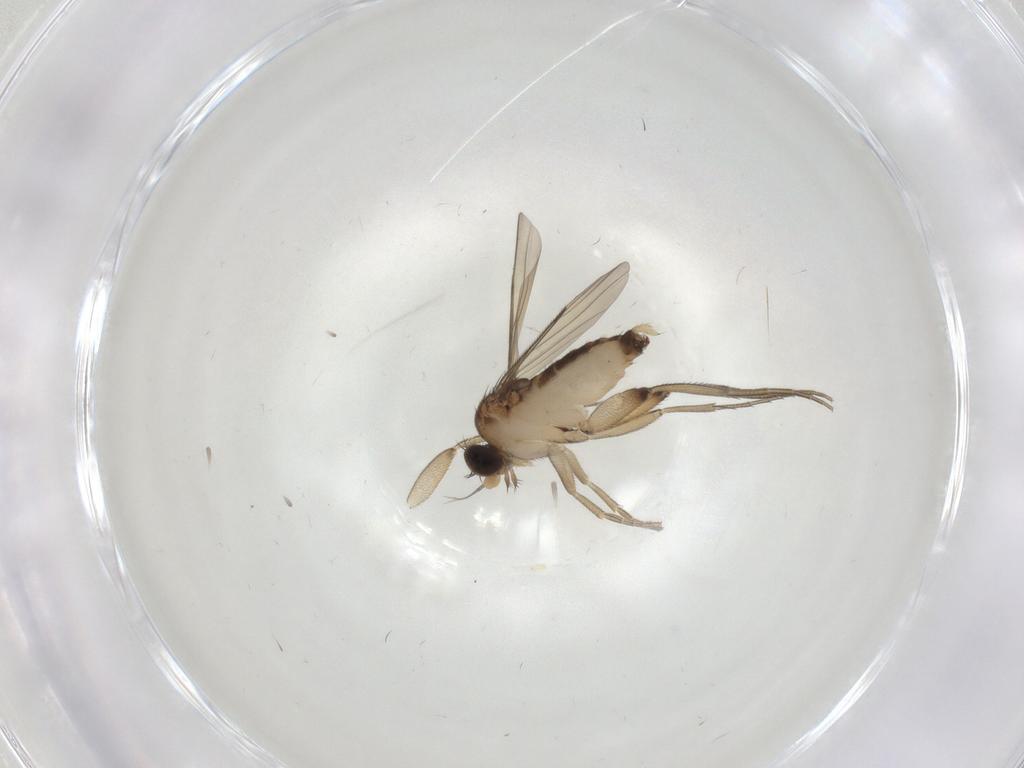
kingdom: Animalia
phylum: Arthropoda
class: Insecta
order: Diptera
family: Phoridae
